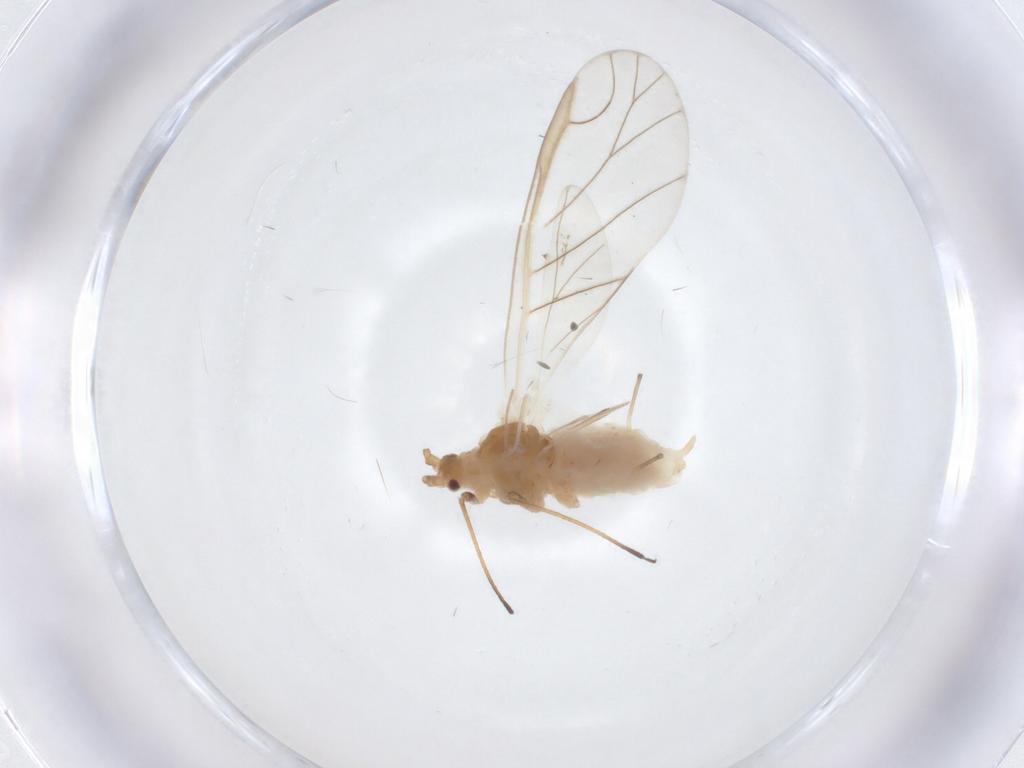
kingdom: Animalia
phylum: Arthropoda
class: Insecta
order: Hemiptera
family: Aphididae
